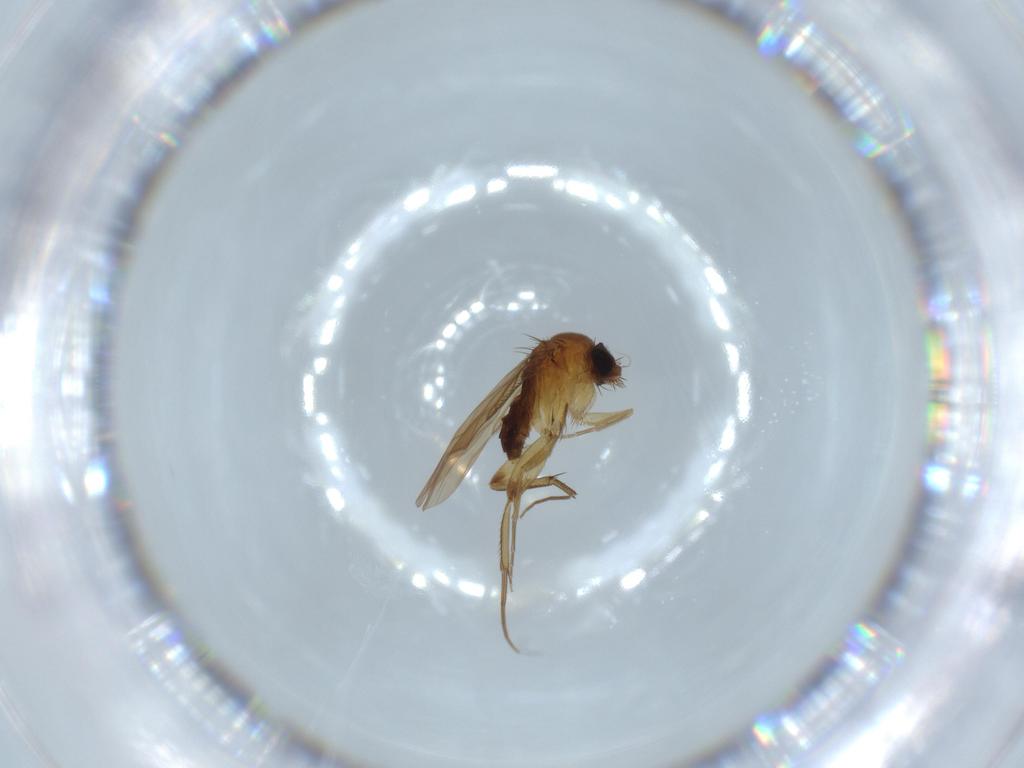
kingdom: Animalia
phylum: Arthropoda
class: Insecta
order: Diptera
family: Phoridae
